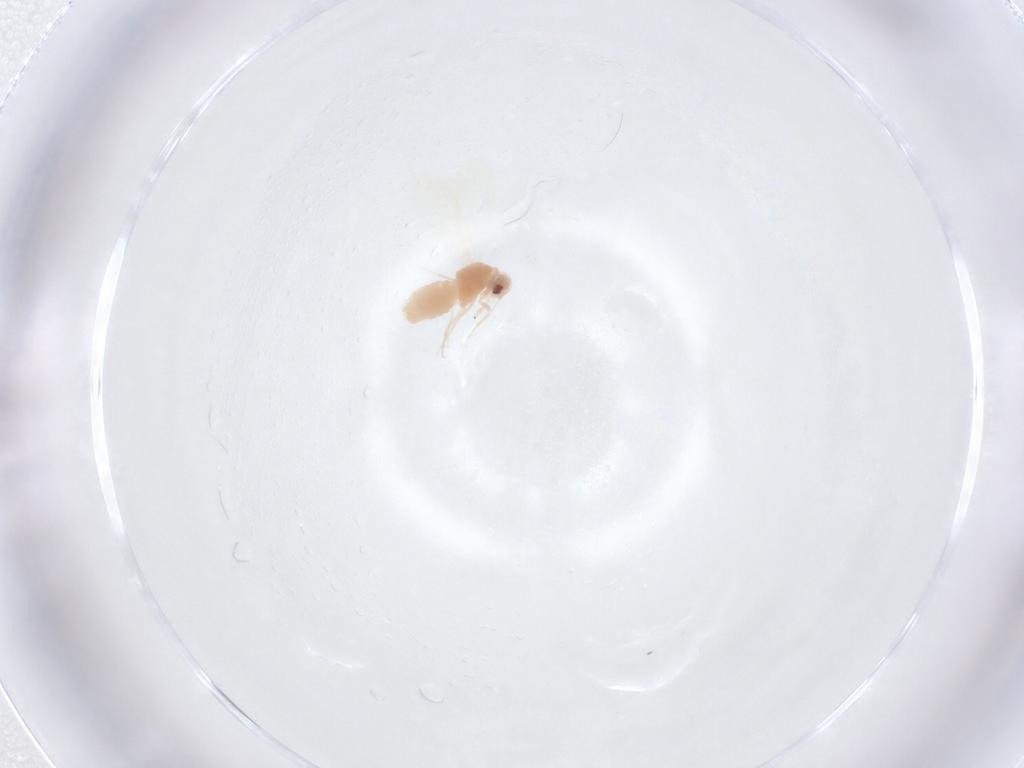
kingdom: Animalia
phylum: Arthropoda
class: Insecta
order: Hemiptera
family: Aleyrodidae
